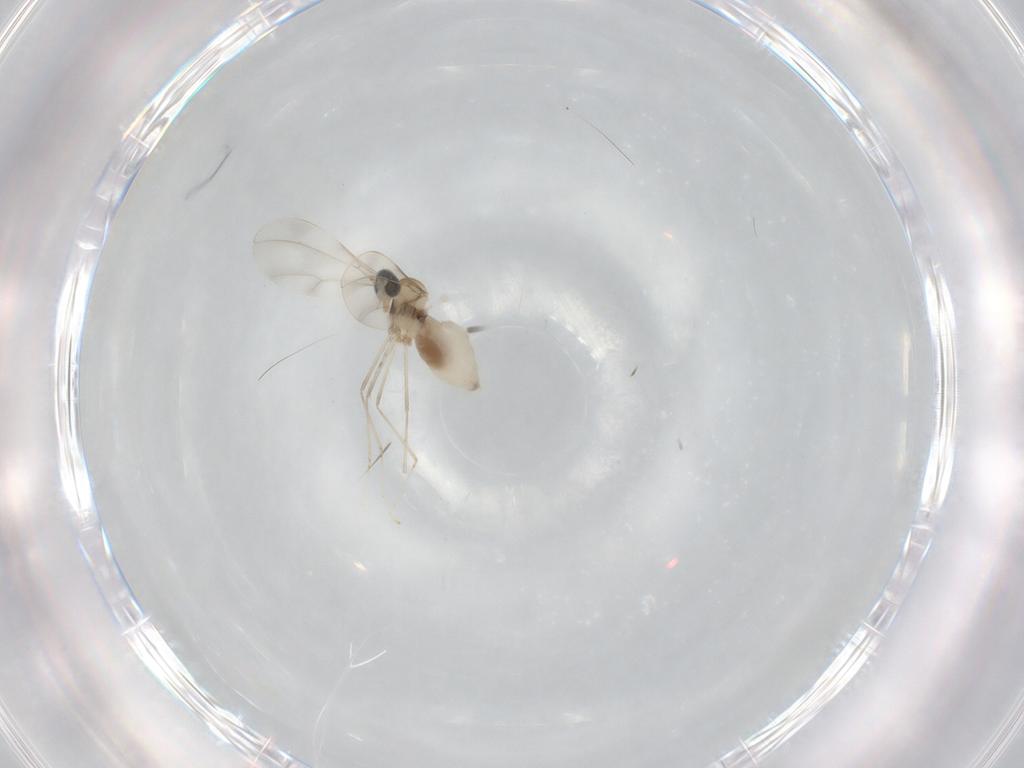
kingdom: Animalia
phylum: Arthropoda
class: Insecta
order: Diptera
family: Cecidomyiidae
